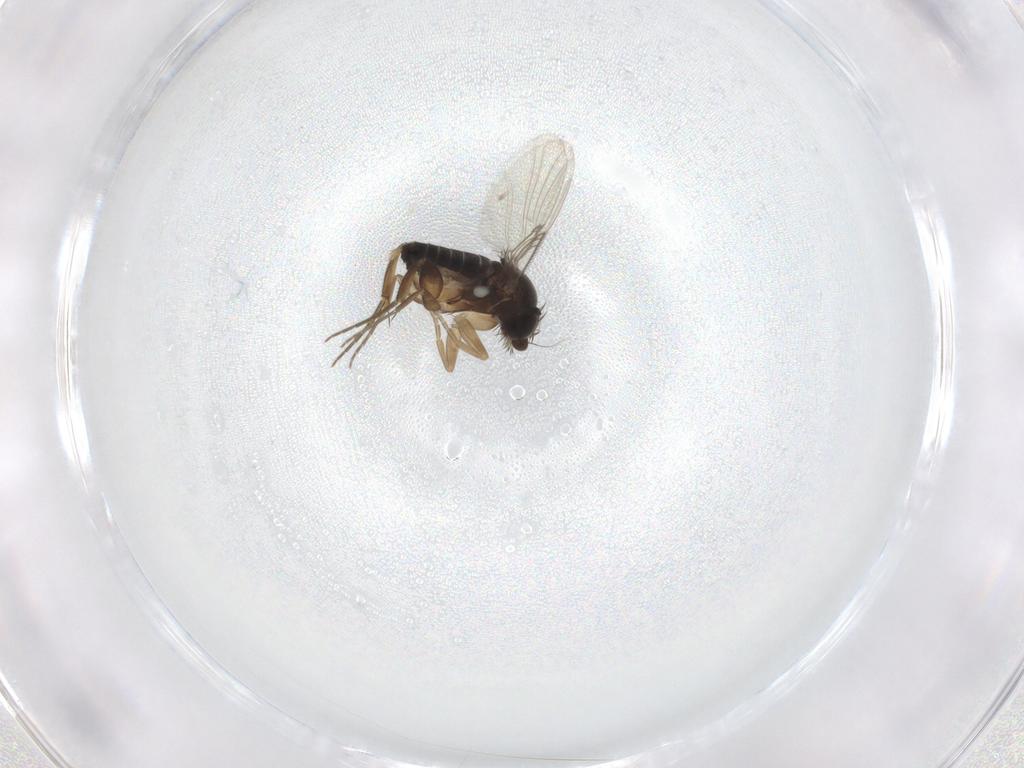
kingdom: Animalia
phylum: Arthropoda
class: Insecta
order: Diptera
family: Phoridae
